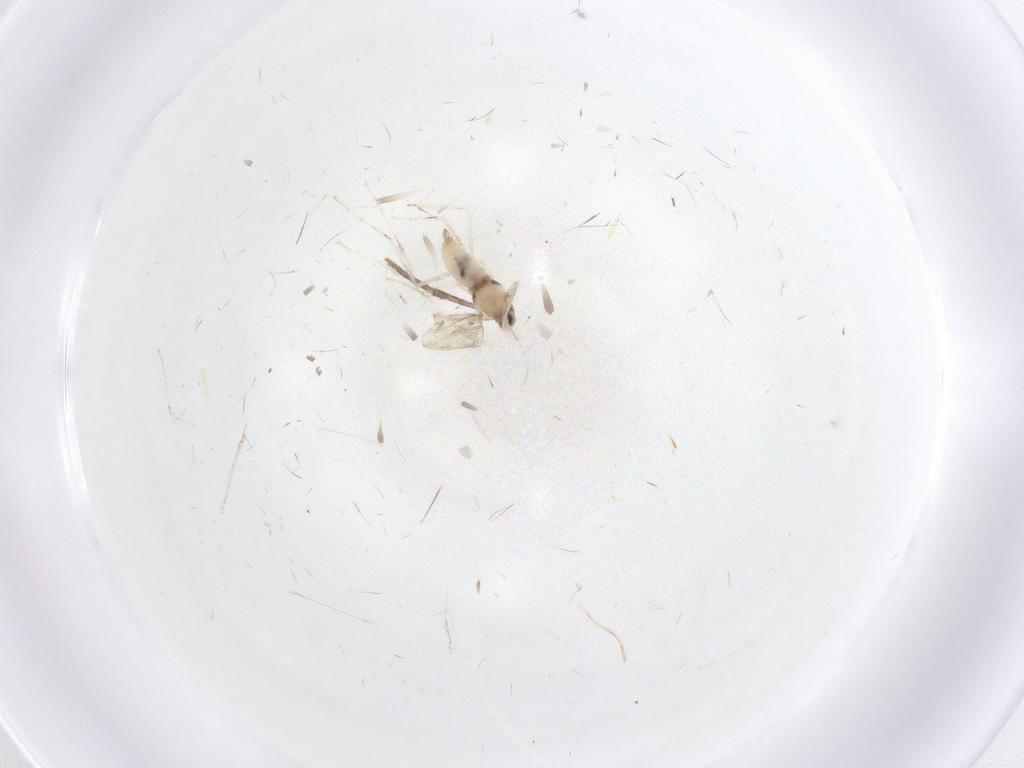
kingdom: Animalia
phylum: Arthropoda
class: Insecta
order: Diptera
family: Cecidomyiidae
